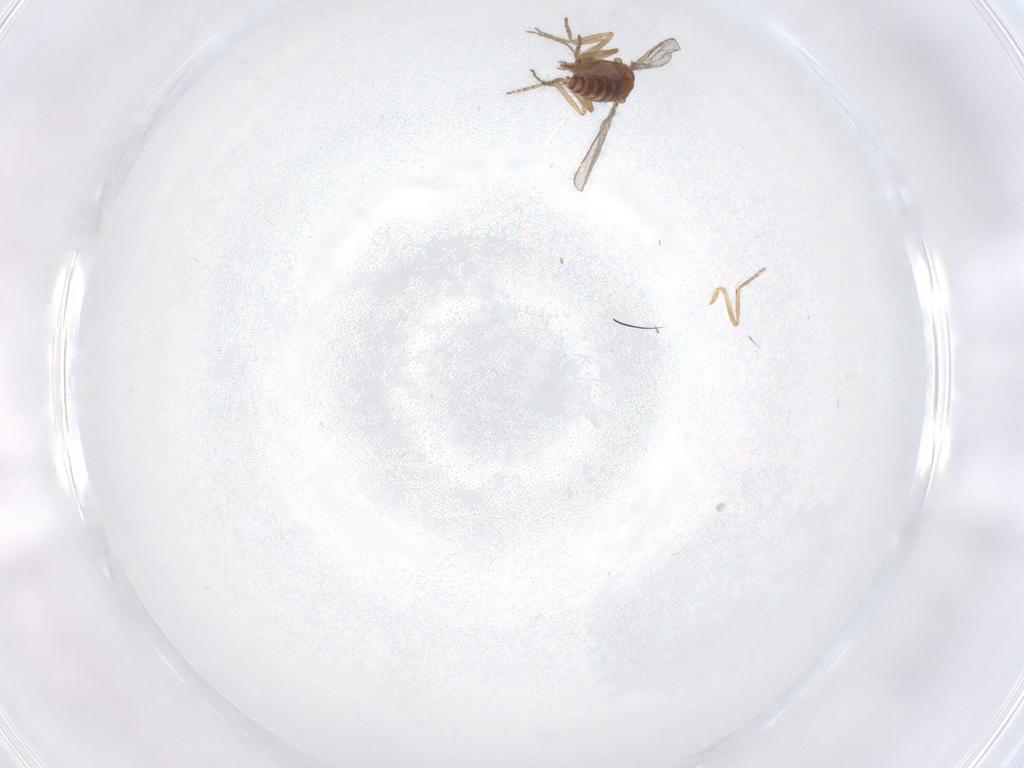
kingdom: Animalia
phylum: Arthropoda
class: Insecta
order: Diptera
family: Ceratopogonidae
